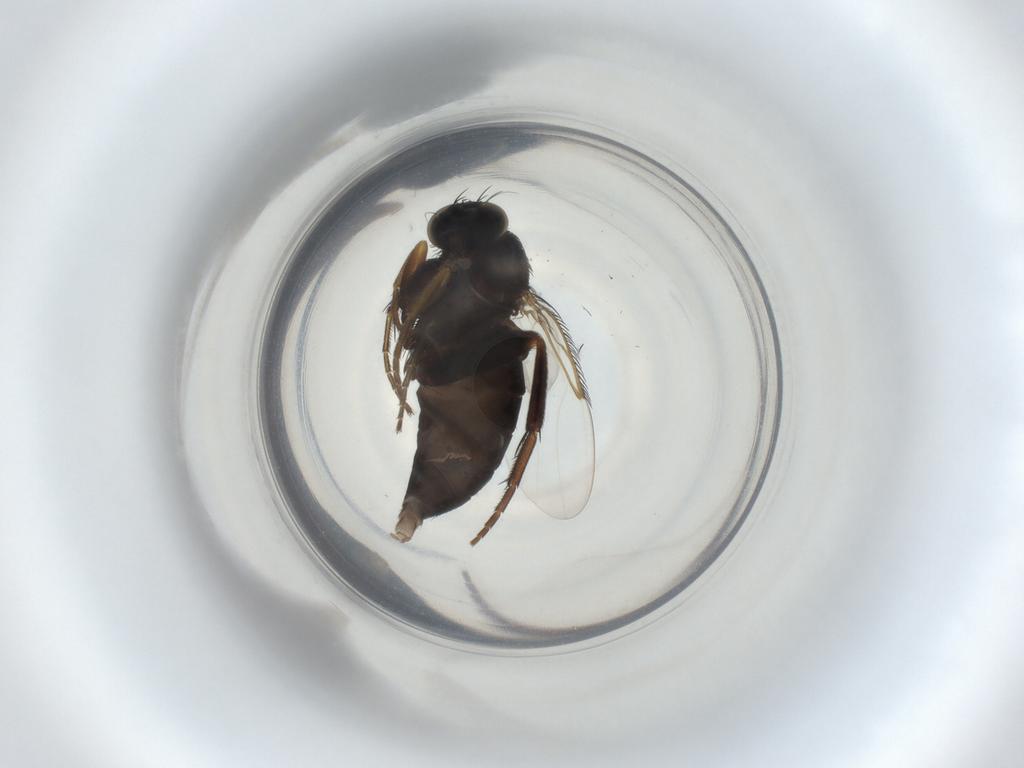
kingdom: Animalia
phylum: Arthropoda
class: Insecta
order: Diptera
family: Phoridae
